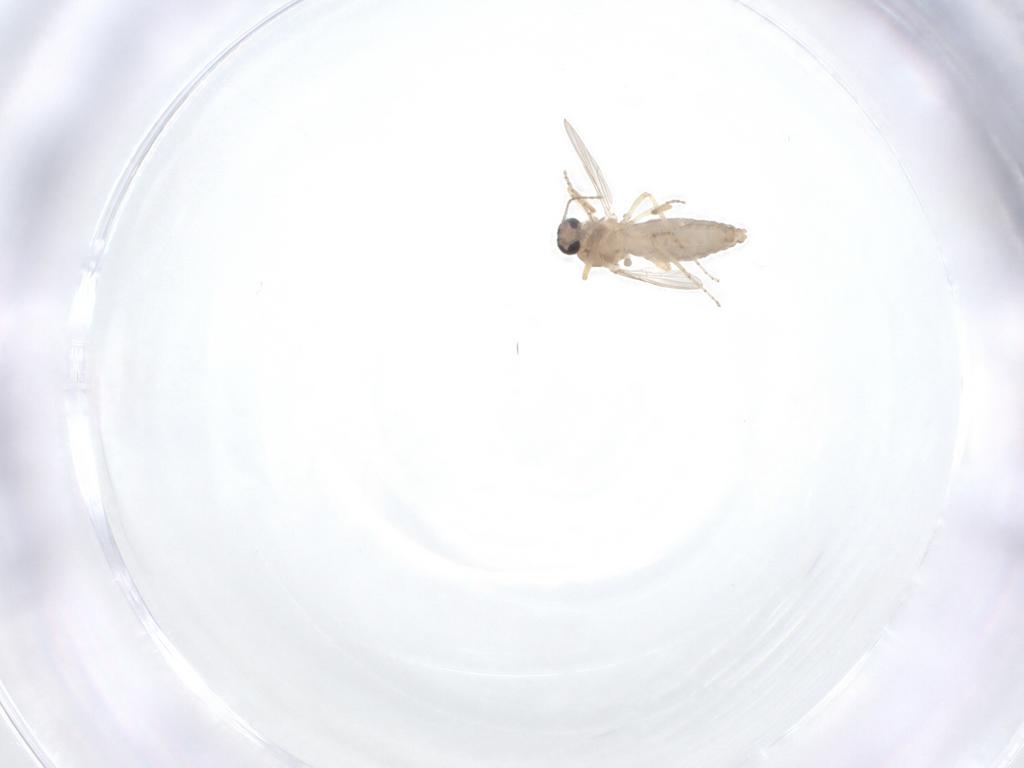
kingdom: Animalia
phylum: Arthropoda
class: Insecta
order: Diptera
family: Ceratopogonidae
